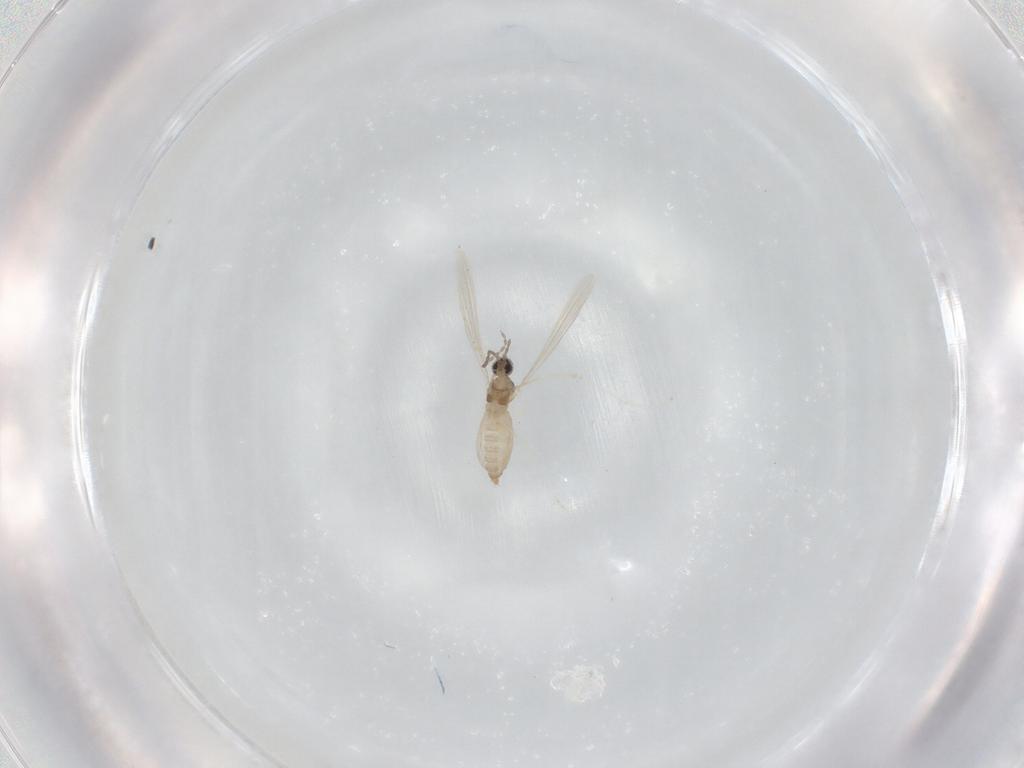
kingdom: Animalia
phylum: Arthropoda
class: Insecta
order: Diptera
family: Cecidomyiidae
